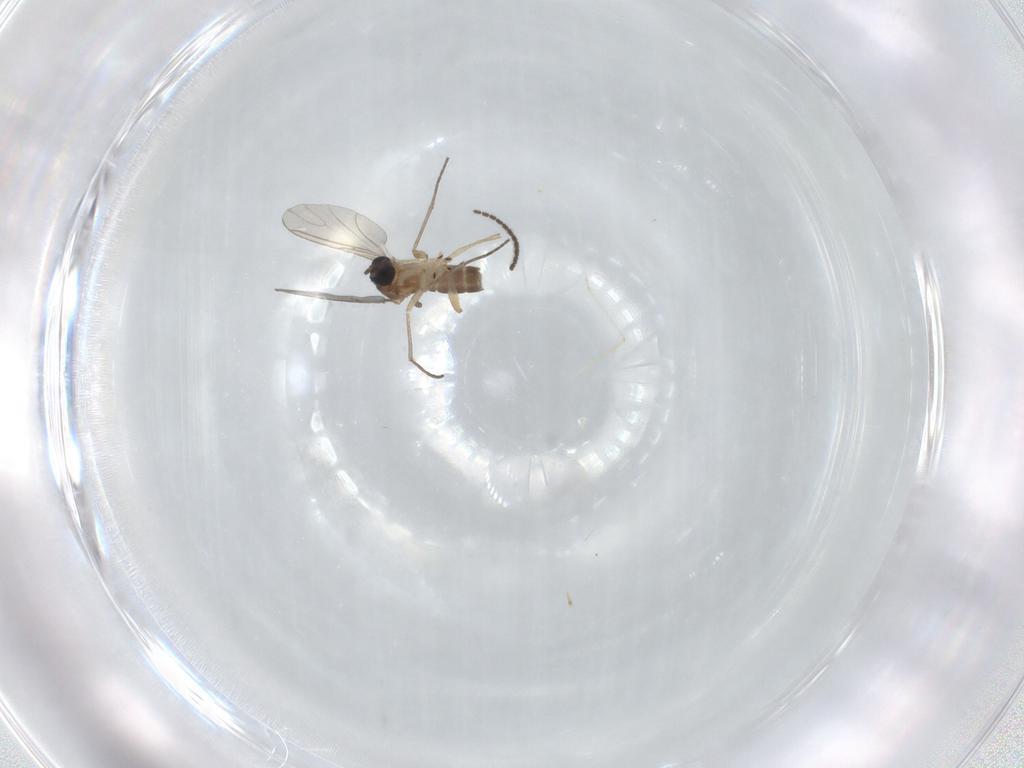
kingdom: Animalia
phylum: Arthropoda
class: Insecta
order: Diptera
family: Sciaridae
